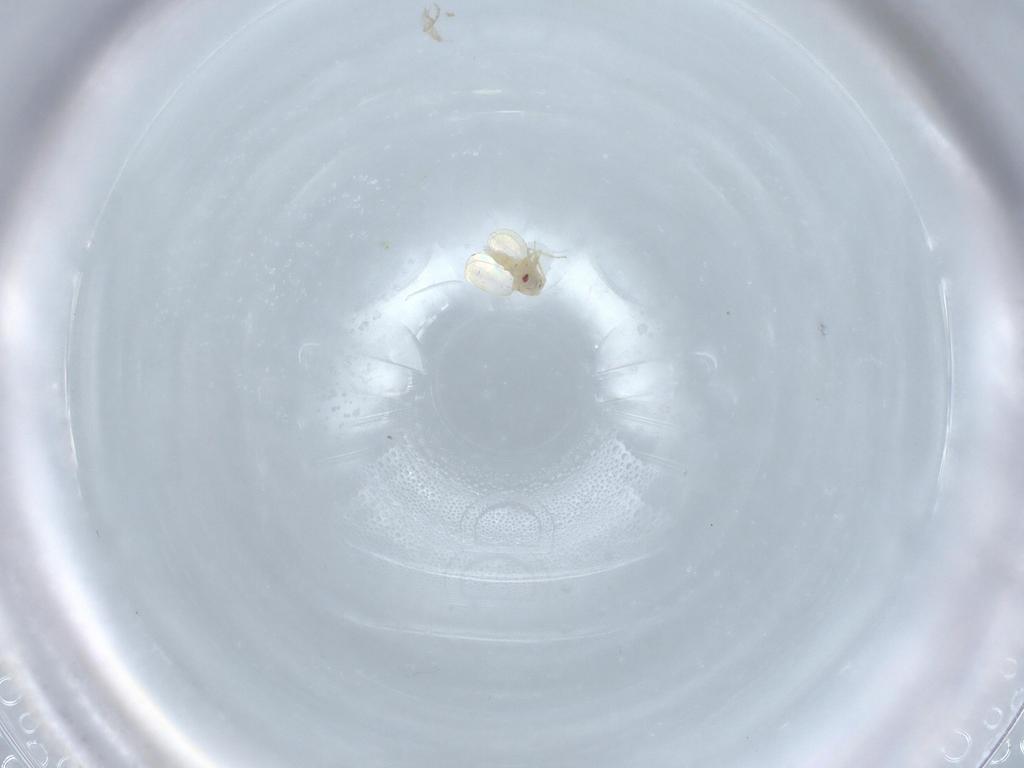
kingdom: Animalia
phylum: Arthropoda
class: Insecta
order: Hemiptera
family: Aleyrodidae
